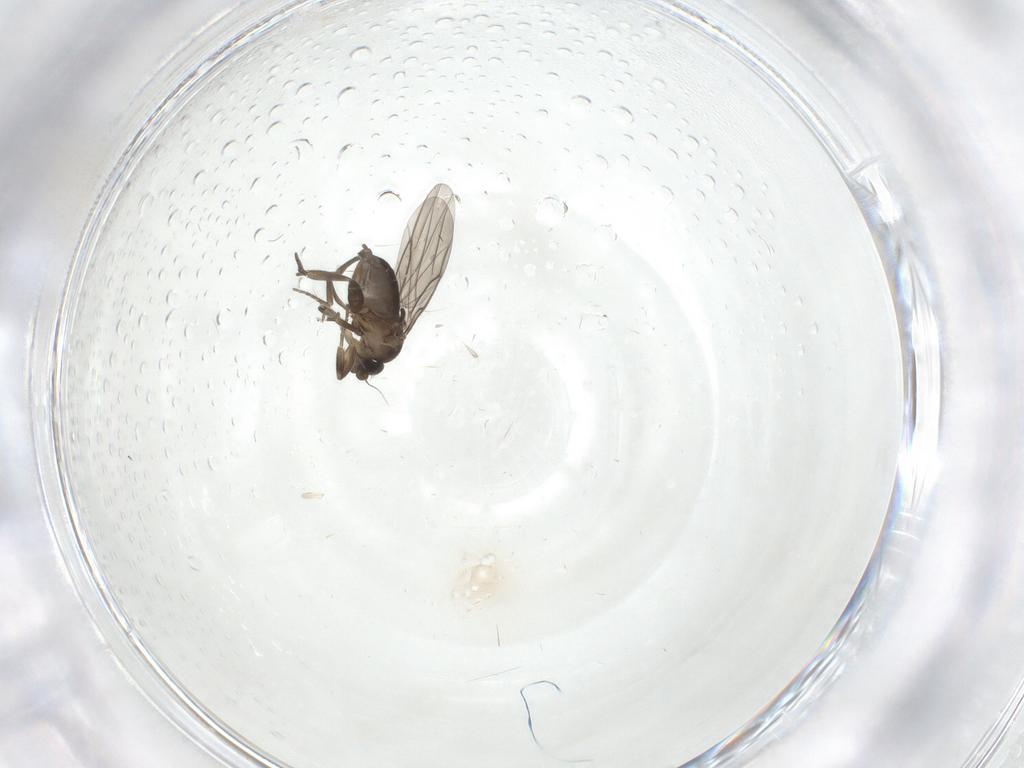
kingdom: Animalia
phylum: Arthropoda
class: Insecta
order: Diptera
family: Phoridae
